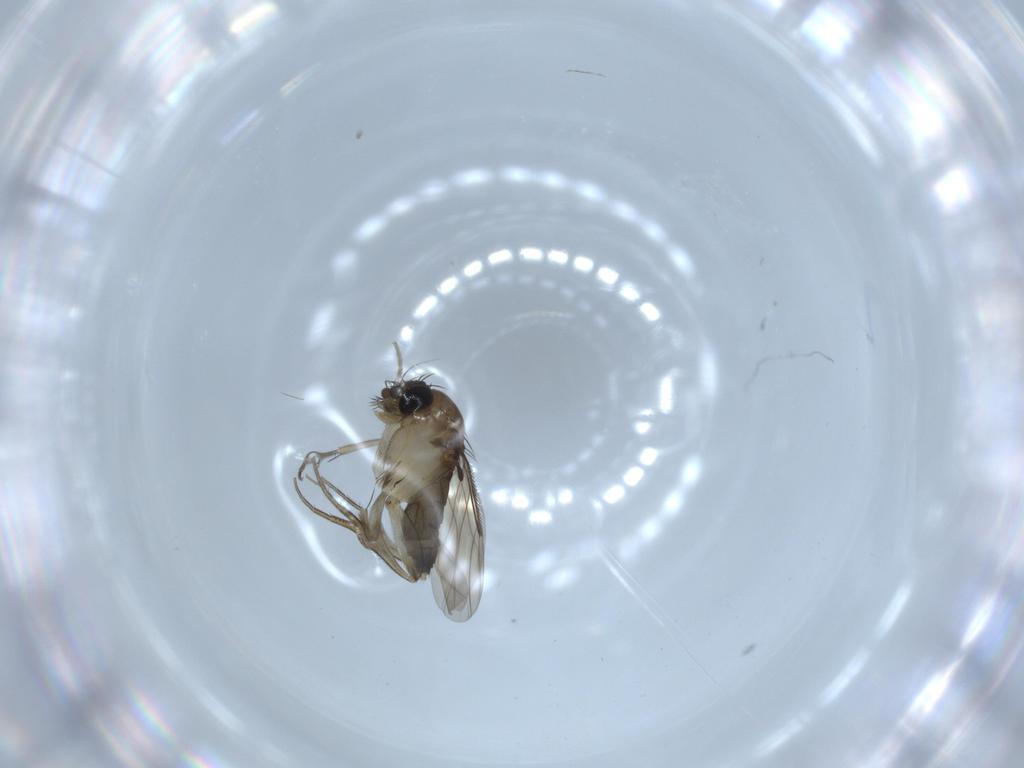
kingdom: Animalia
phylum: Arthropoda
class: Insecta
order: Diptera
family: Phoridae
